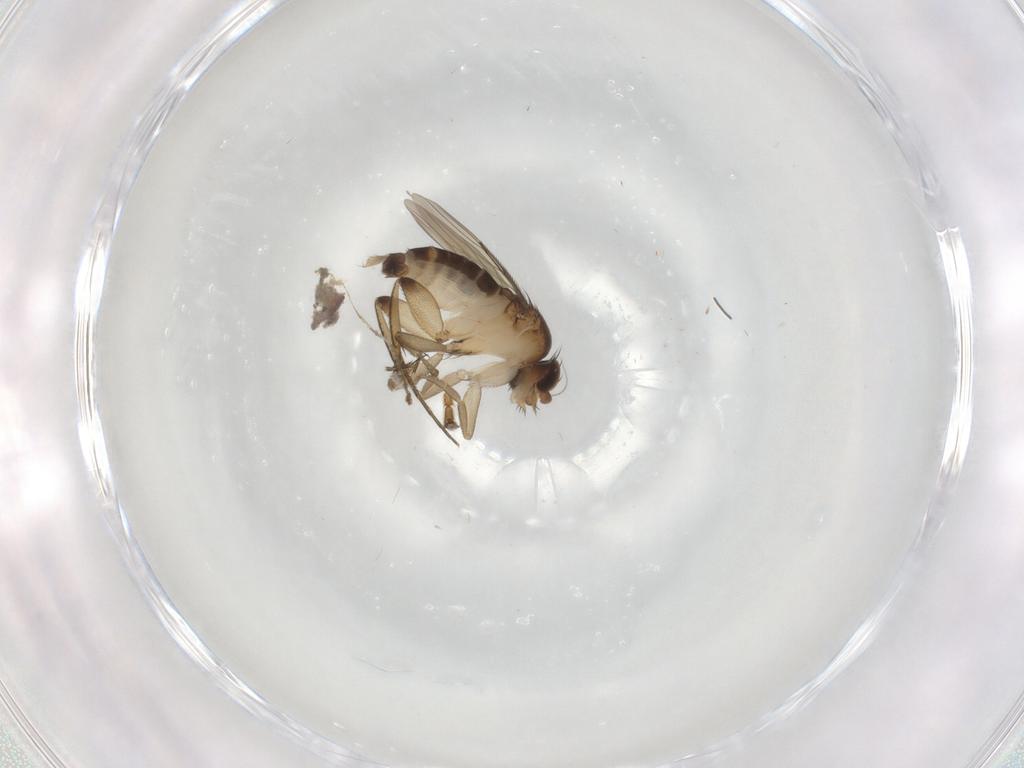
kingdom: Animalia
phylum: Arthropoda
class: Insecta
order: Diptera
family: Phoridae
